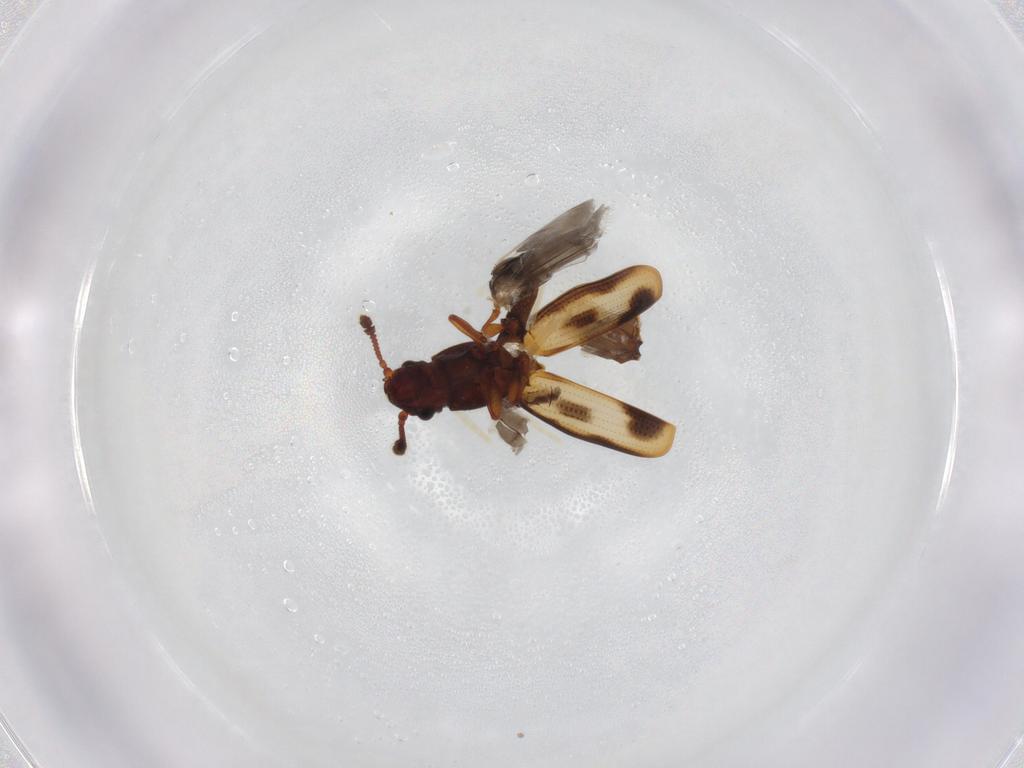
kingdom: Animalia
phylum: Arthropoda
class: Insecta
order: Coleoptera
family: Monotomidae
